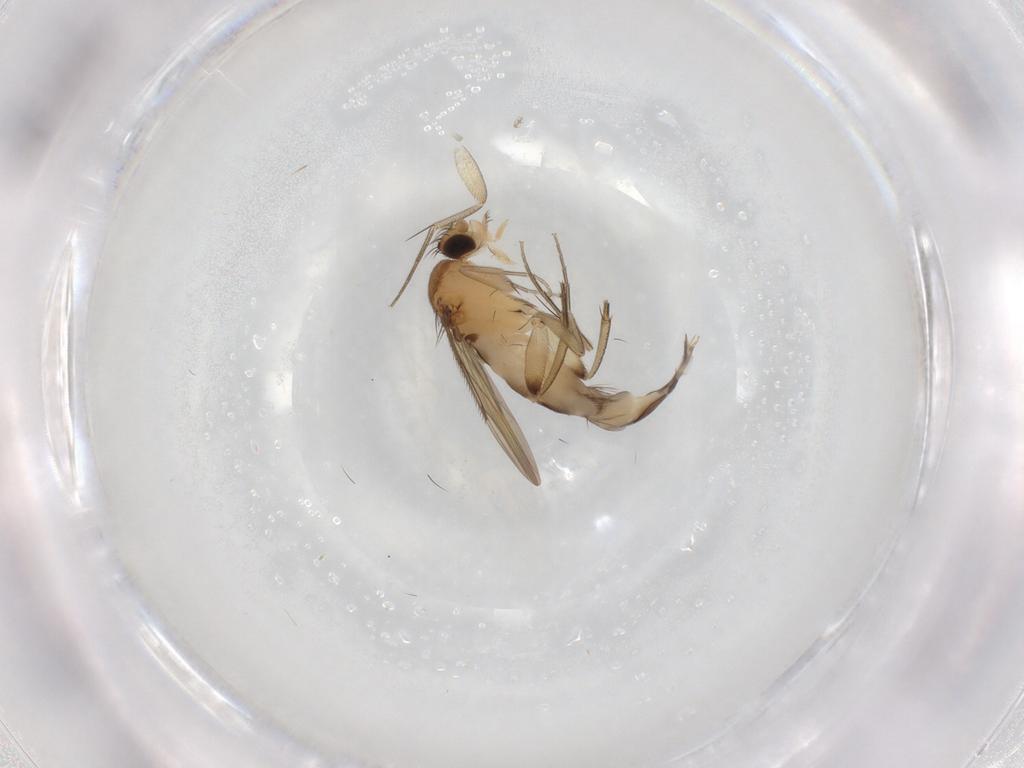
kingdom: Animalia
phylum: Arthropoda
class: Insecta
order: Diptera
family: Phoridae
